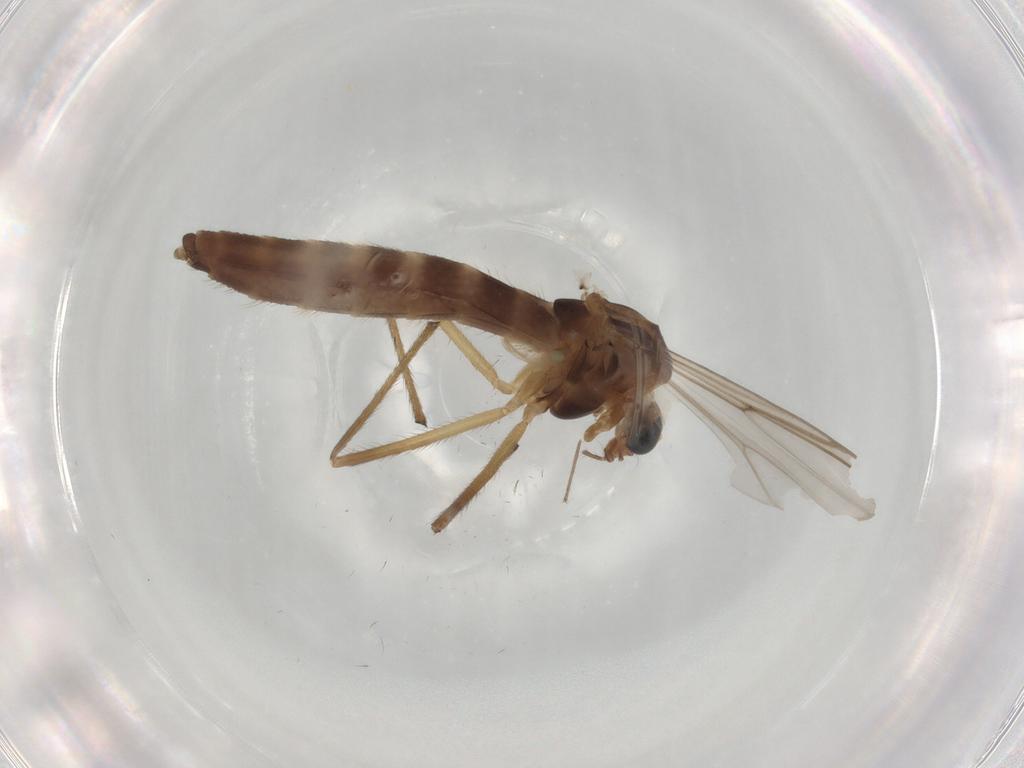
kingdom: Animalia
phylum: Arthropoda
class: Insecta
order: Diptera
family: Chironomidae
